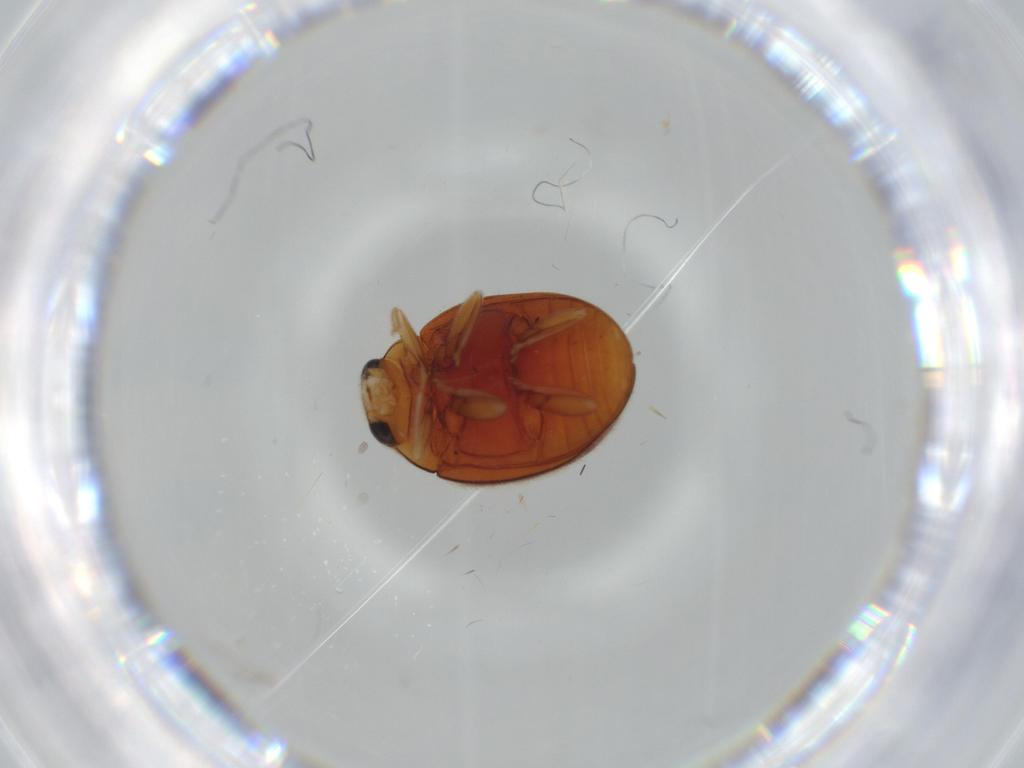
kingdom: Animalia
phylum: Arthropoda
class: Insecta
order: Coleoptera
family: Coccinellidae
